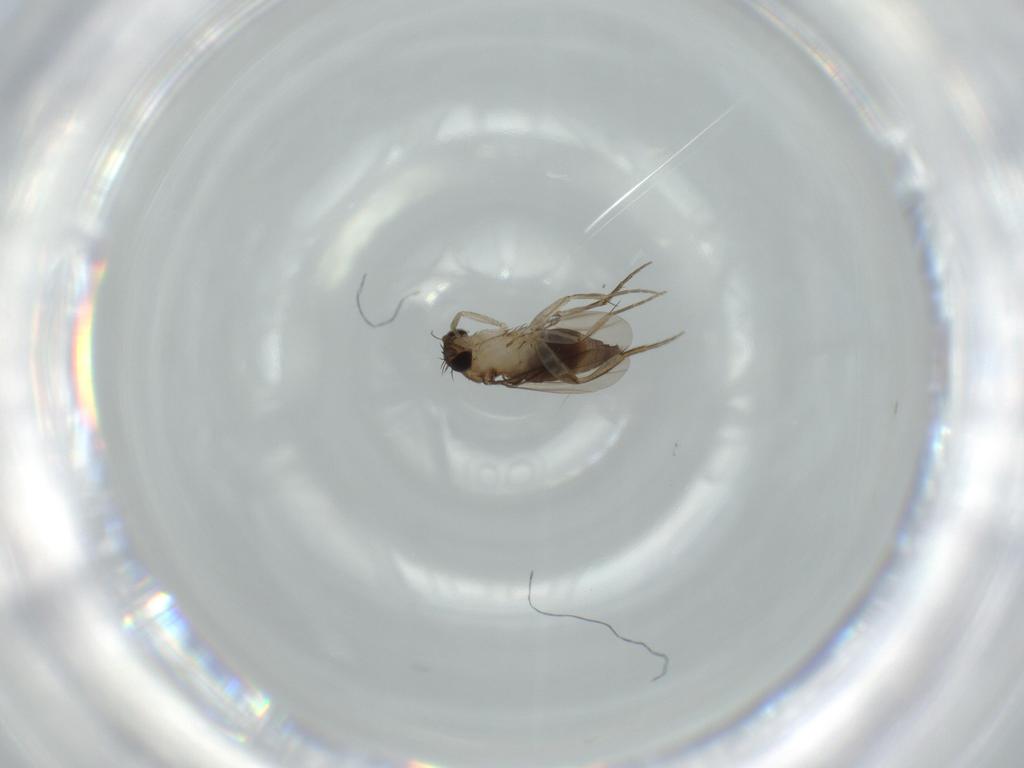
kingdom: Animalia
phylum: Arthropoda
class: Insecta
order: Diptera
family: Phoridae
